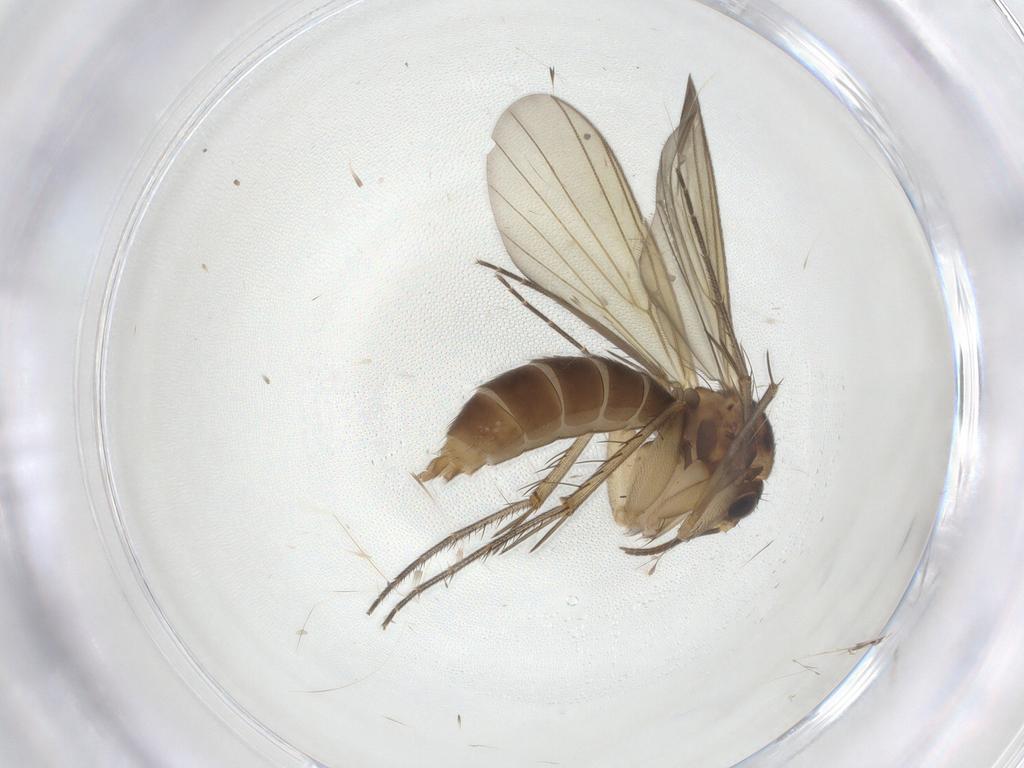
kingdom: Animalia
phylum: Arthropoda
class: Insecta
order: Diptera
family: Mycetophilidae
